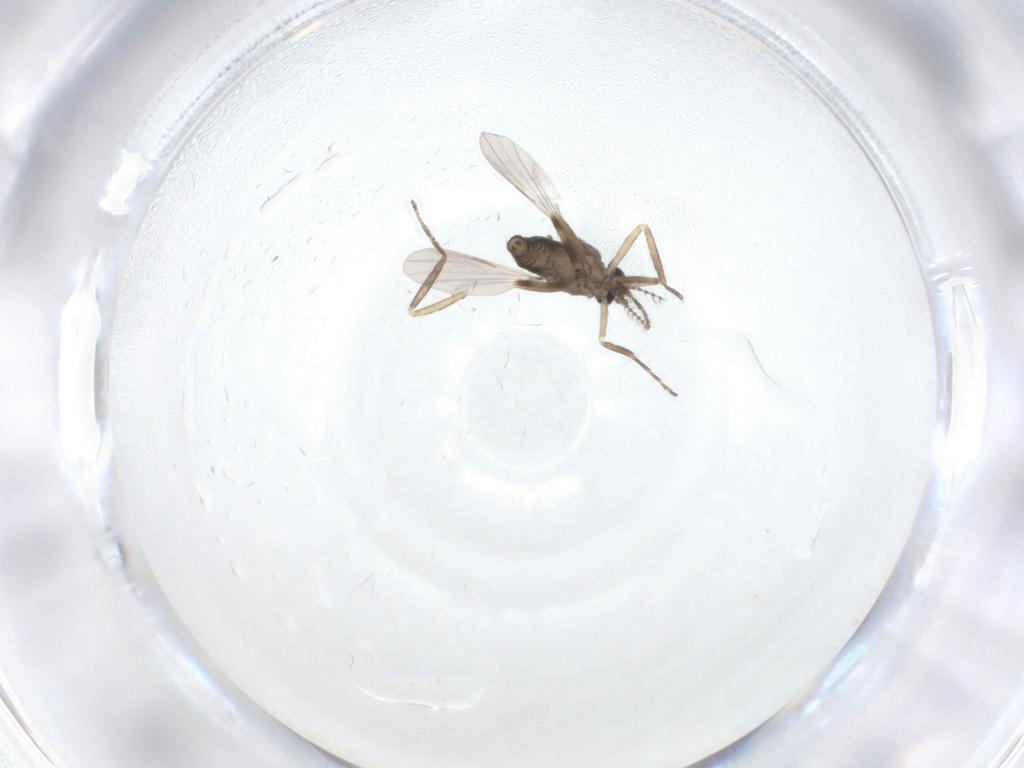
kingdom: Animalia
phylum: Arthropoda
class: Insecta
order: Diptera
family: Ceratopogonidae
